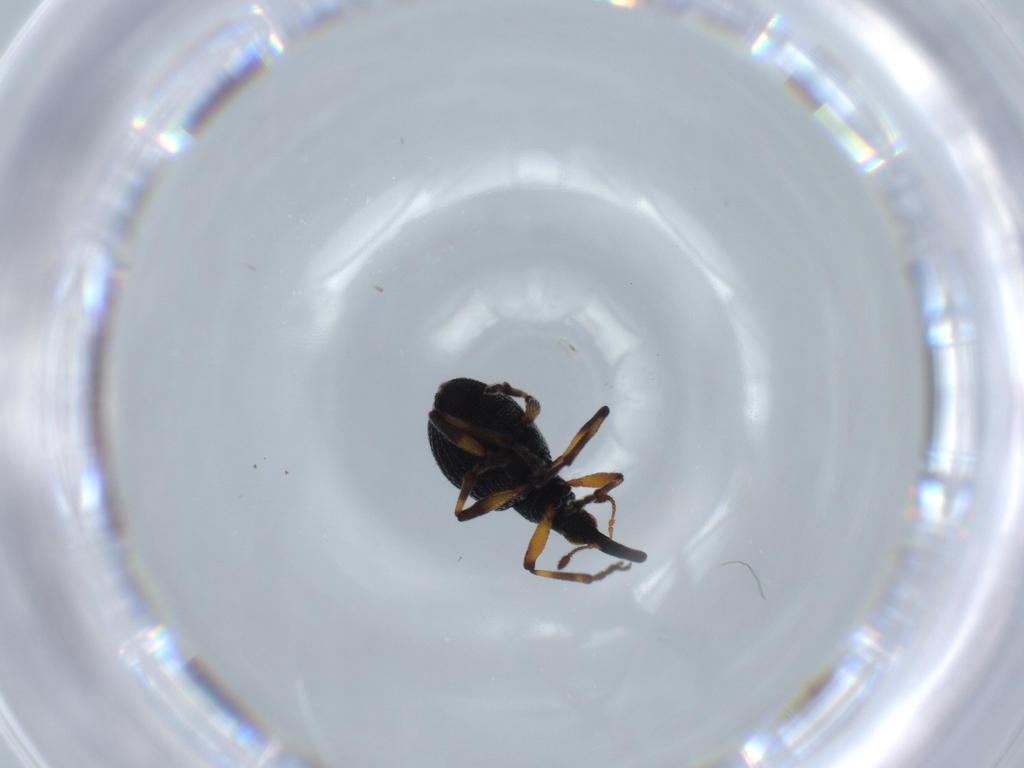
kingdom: Animalia
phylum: Arthropoda
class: Insecta
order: Coleoptera
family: Brentidae
